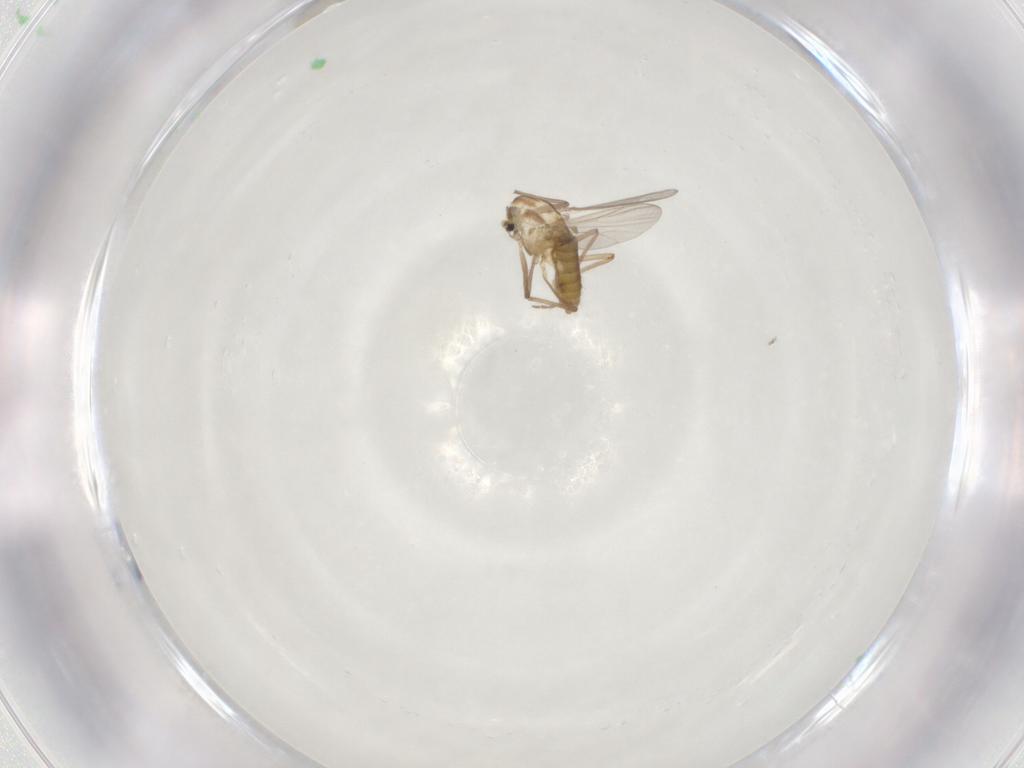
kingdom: Animalia
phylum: Arthropoda
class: Insecta
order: Diptera
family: Chironomidae
